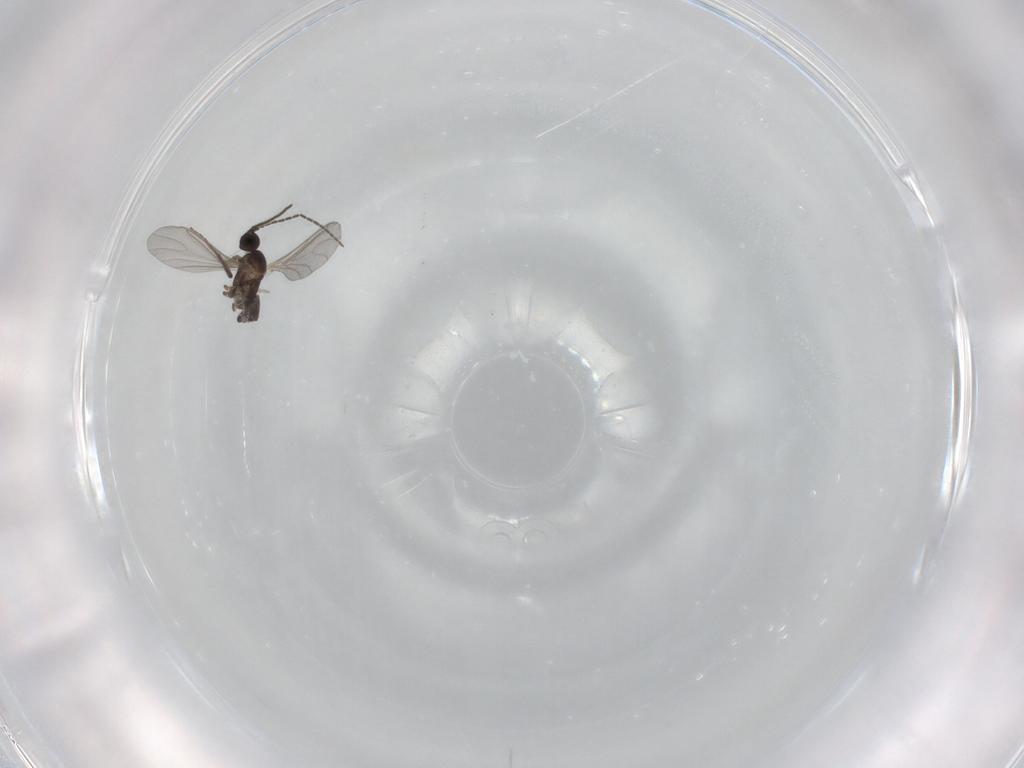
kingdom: Animalia
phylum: Arthropoda
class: Insecta
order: Diptera
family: Sciaridae
